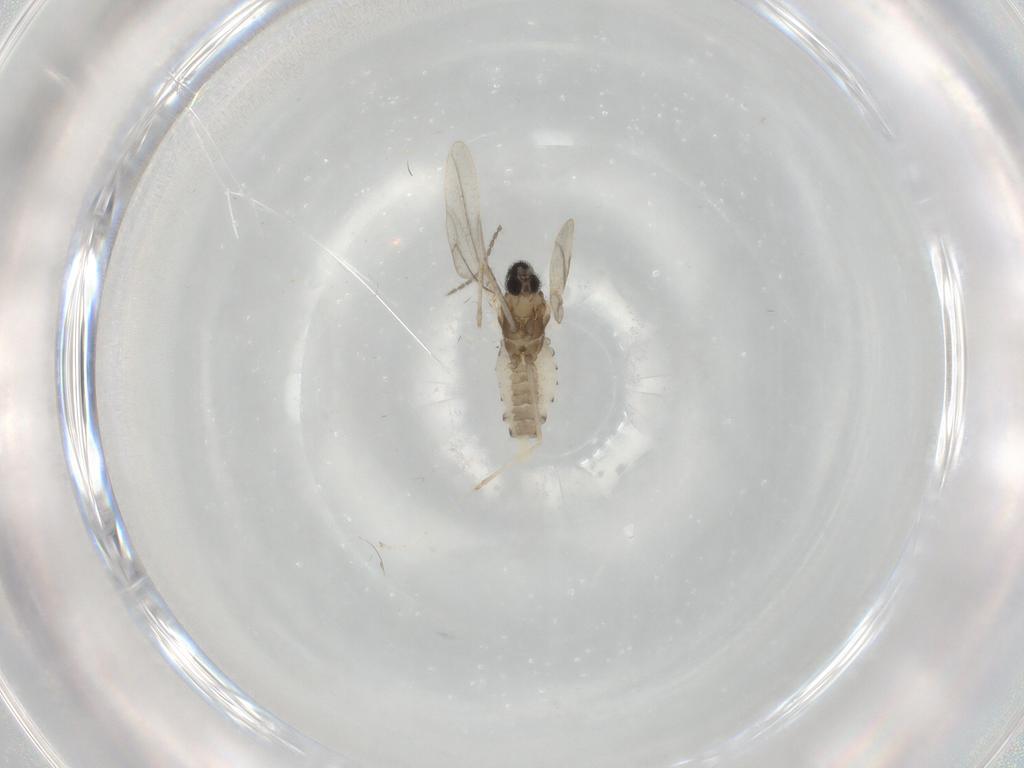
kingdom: Animalia
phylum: Arthropoda
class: Insecta
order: Diptera
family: Cecidomyiidae
